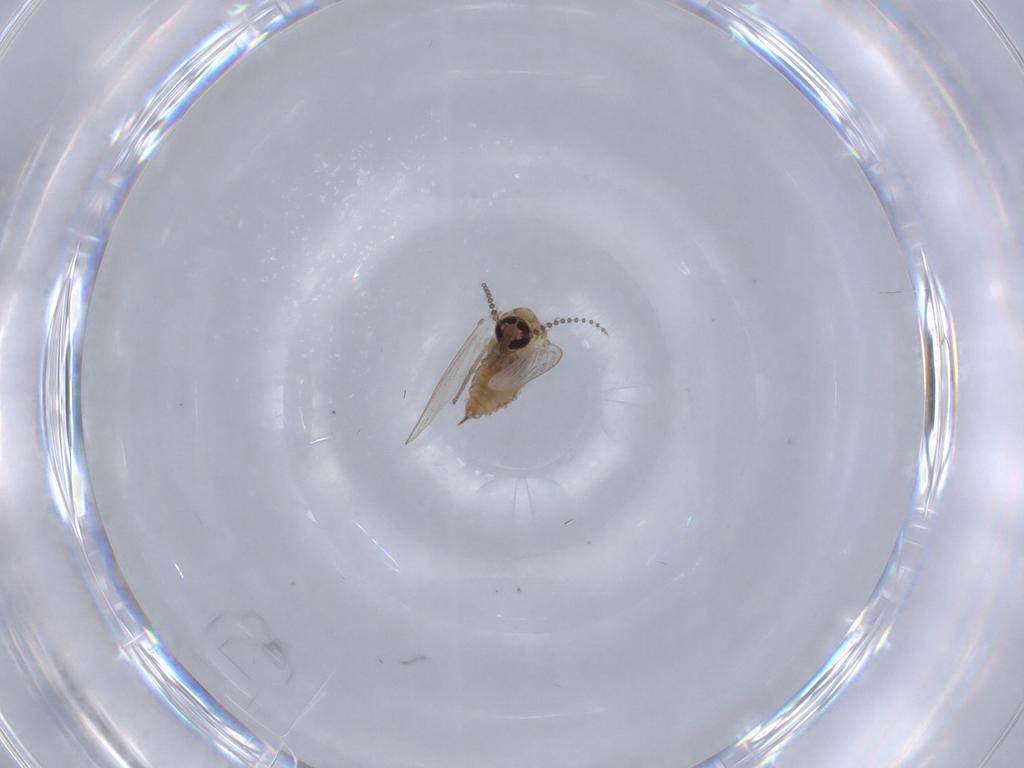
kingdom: Animalia
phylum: Arthropoda
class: Insecta
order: Diptera
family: Psychodidae
